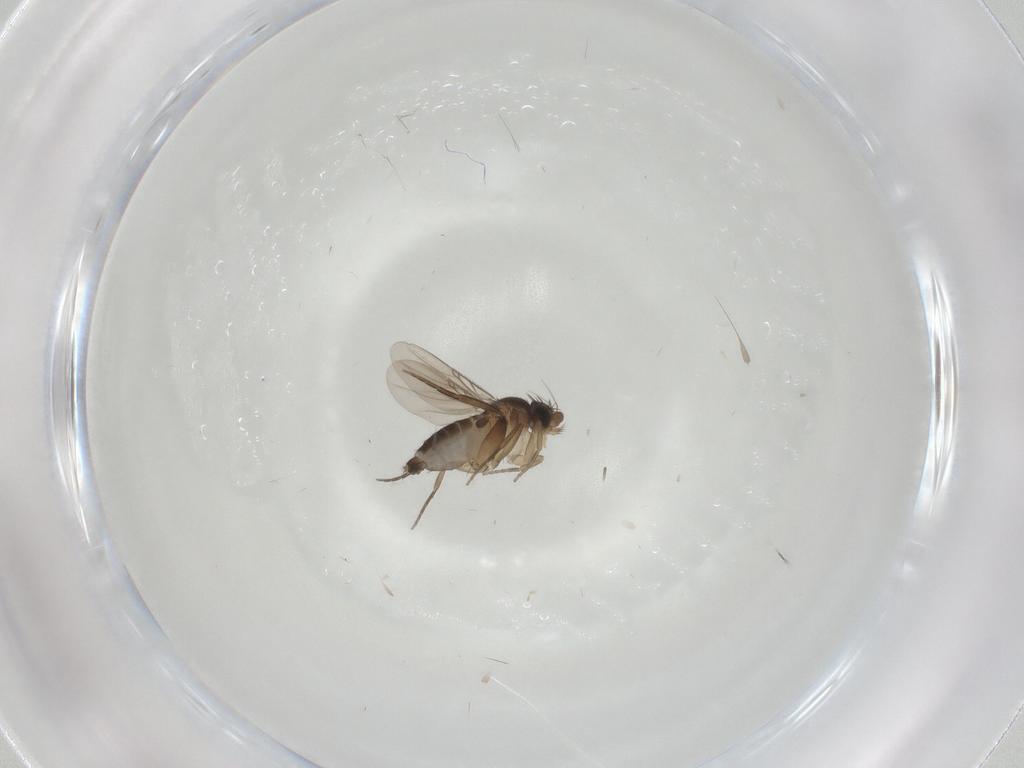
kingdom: Animalia
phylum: Arthropoda
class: Insecta
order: Diptera
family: Phoridae
